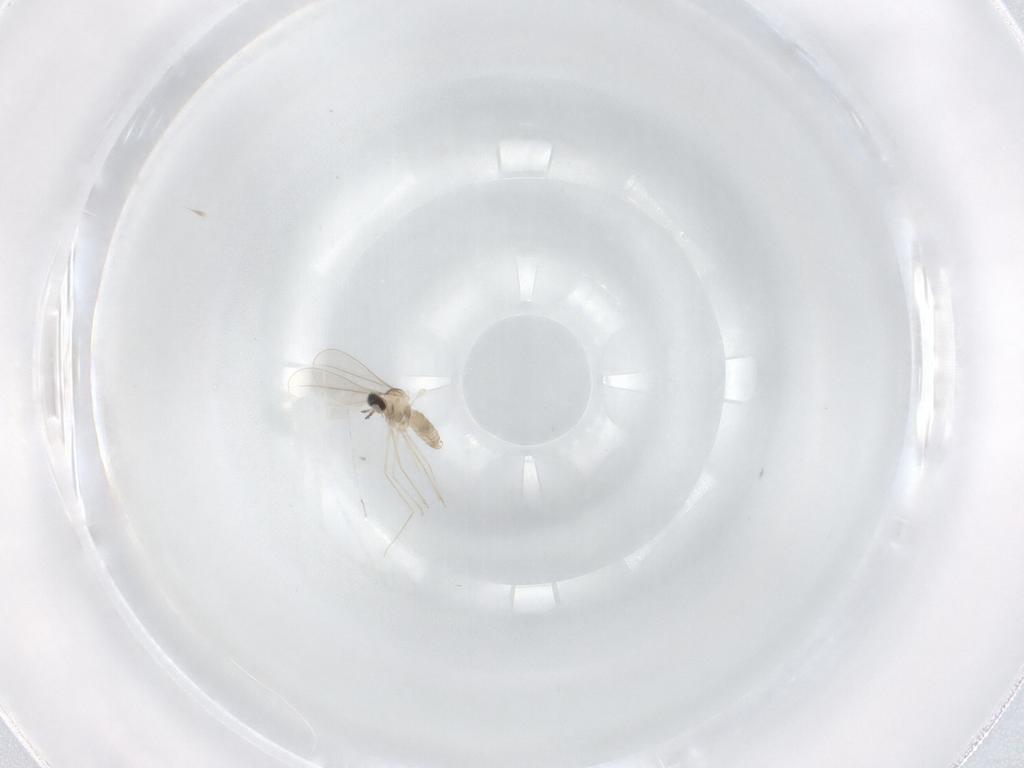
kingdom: Animalia
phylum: Arthropoda
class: Insecta
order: Diptera
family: Cecidomyiidae
